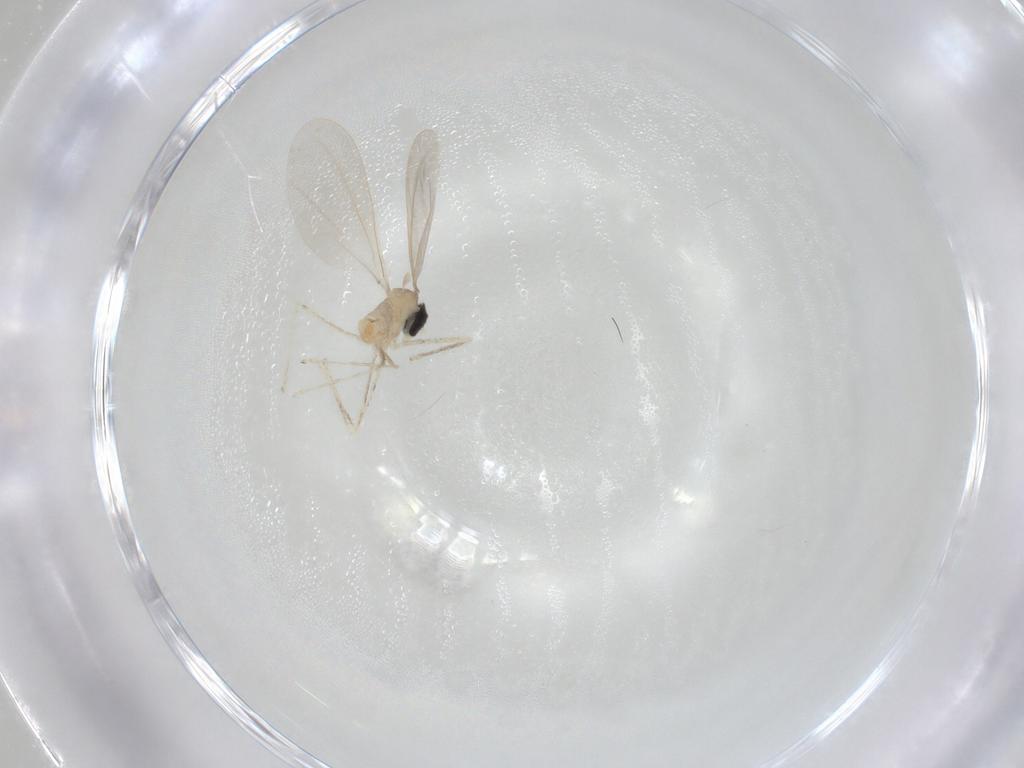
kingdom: Animalia
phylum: Arthropoda
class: Insecta
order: Diptera
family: Cecidomyiidae
